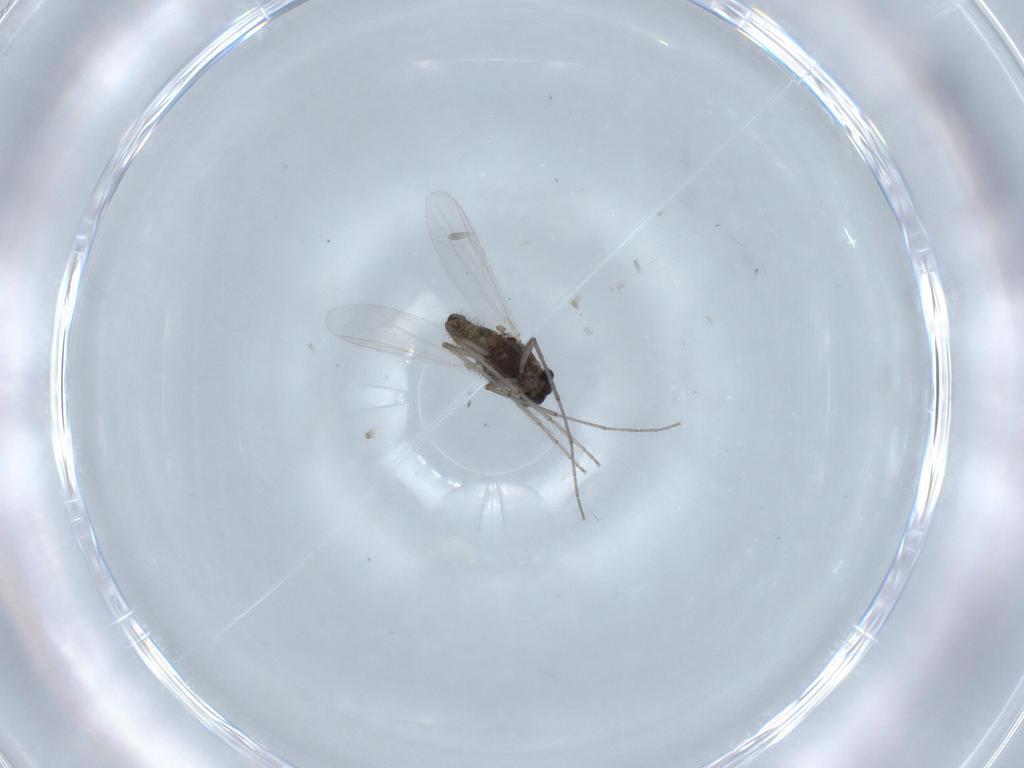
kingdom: Animalia
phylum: Arthropoda
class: Insecta
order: Diptera
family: Chironomidae
